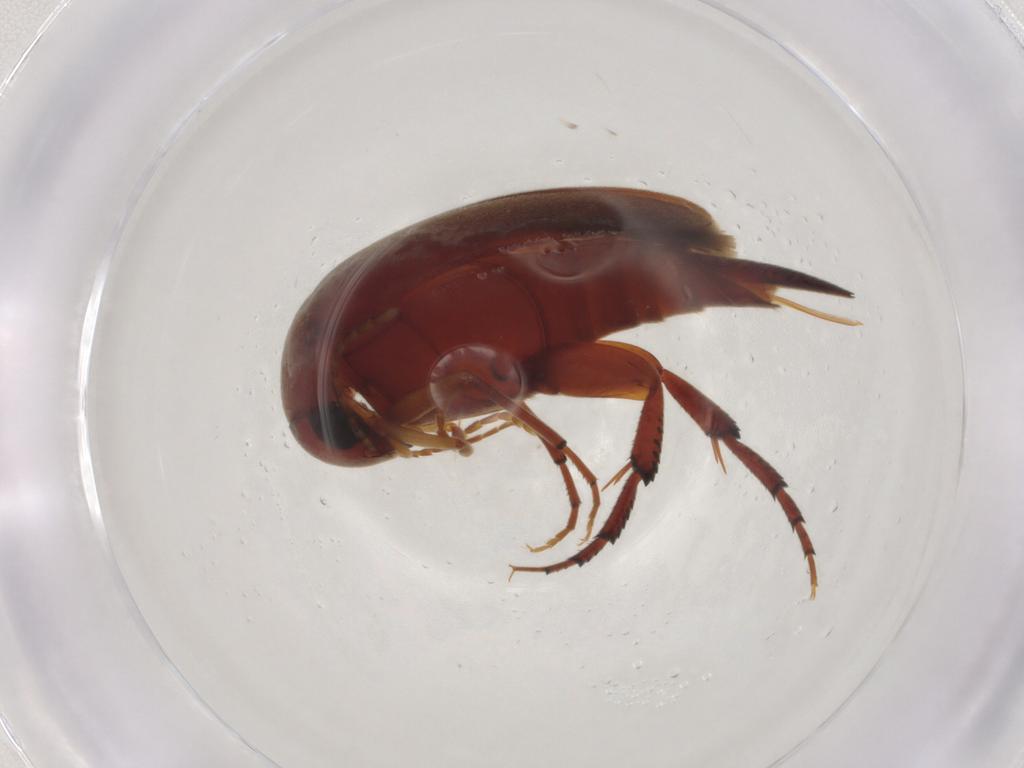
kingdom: Animalia
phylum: Arthropoda
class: Insecta
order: Coleoptera
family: Mordellidae
